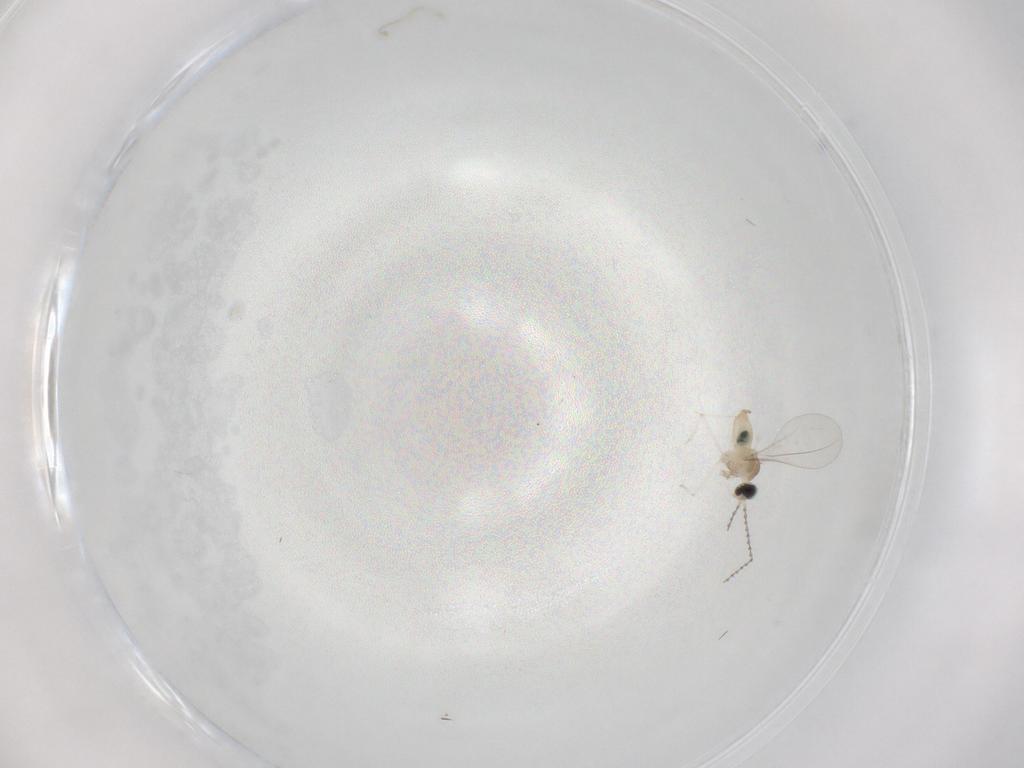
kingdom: Animalia
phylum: Arthropoda
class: Insecta
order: Diptera
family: Cecidomyiidae
